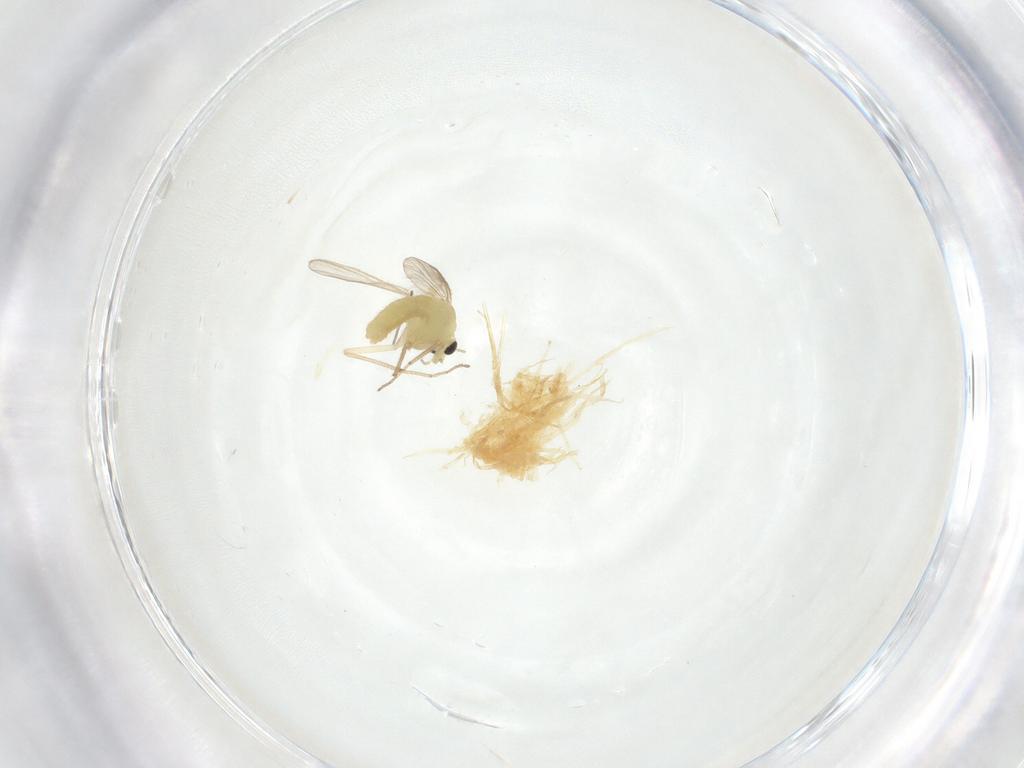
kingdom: Animalia
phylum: Arthropoda
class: Insecta
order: Diptera
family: Chironomidae
